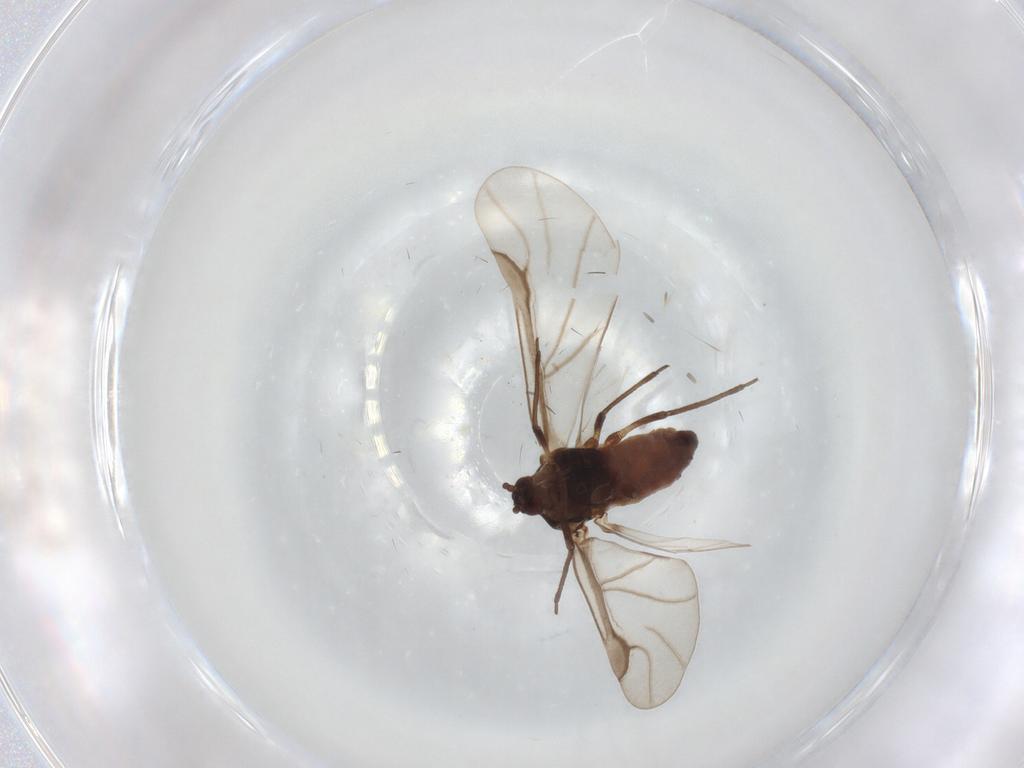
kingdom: Animalia
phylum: Arthropoda
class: Insecta
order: Hemiptera
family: Aphididae
